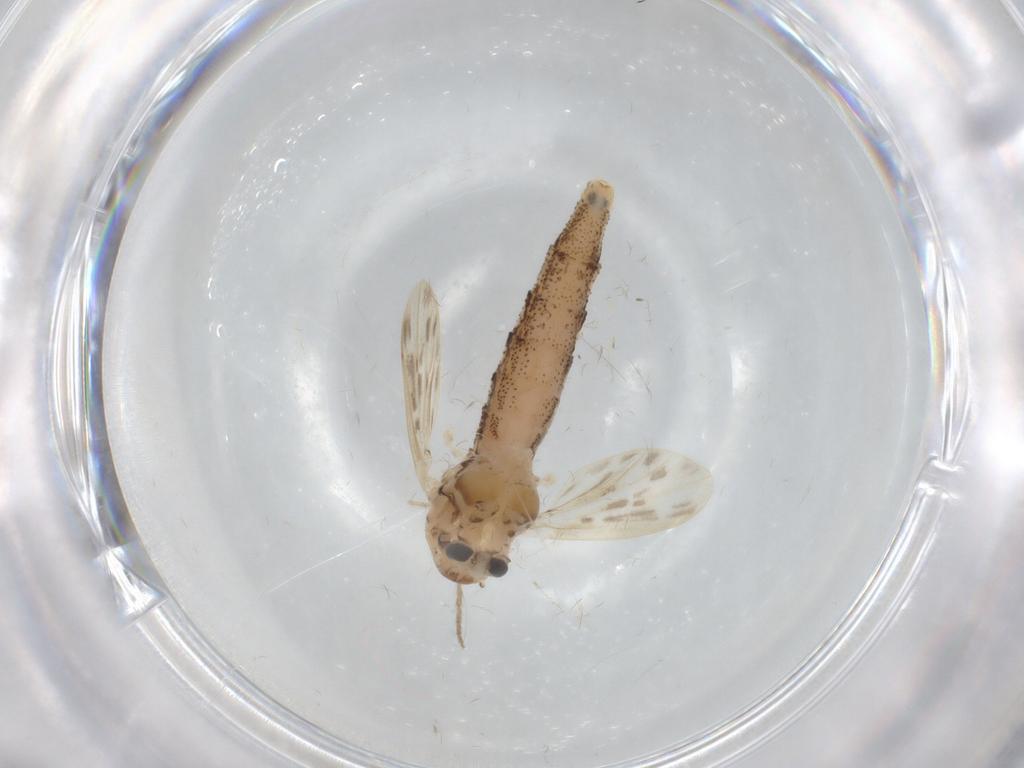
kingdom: Animalia
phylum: Arthropoda
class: Insecta
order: Diptera
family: Chaoboridae
